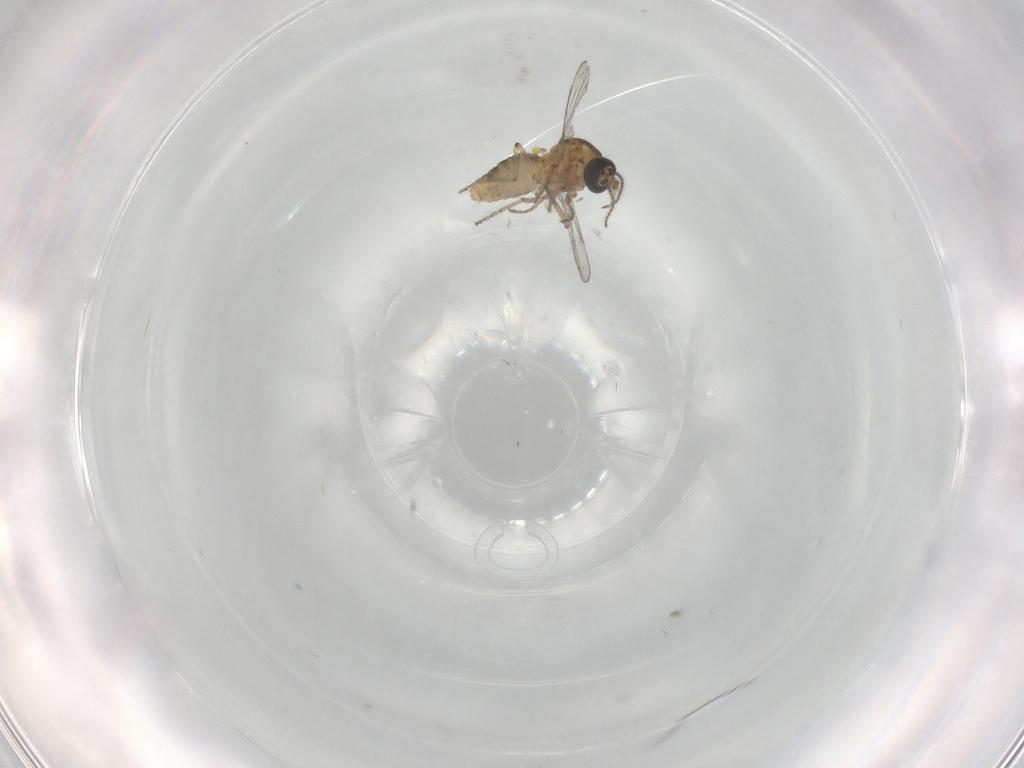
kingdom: Animalia
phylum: Arthropoda
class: Insecta
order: Diptera
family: Ceratopogonidae
